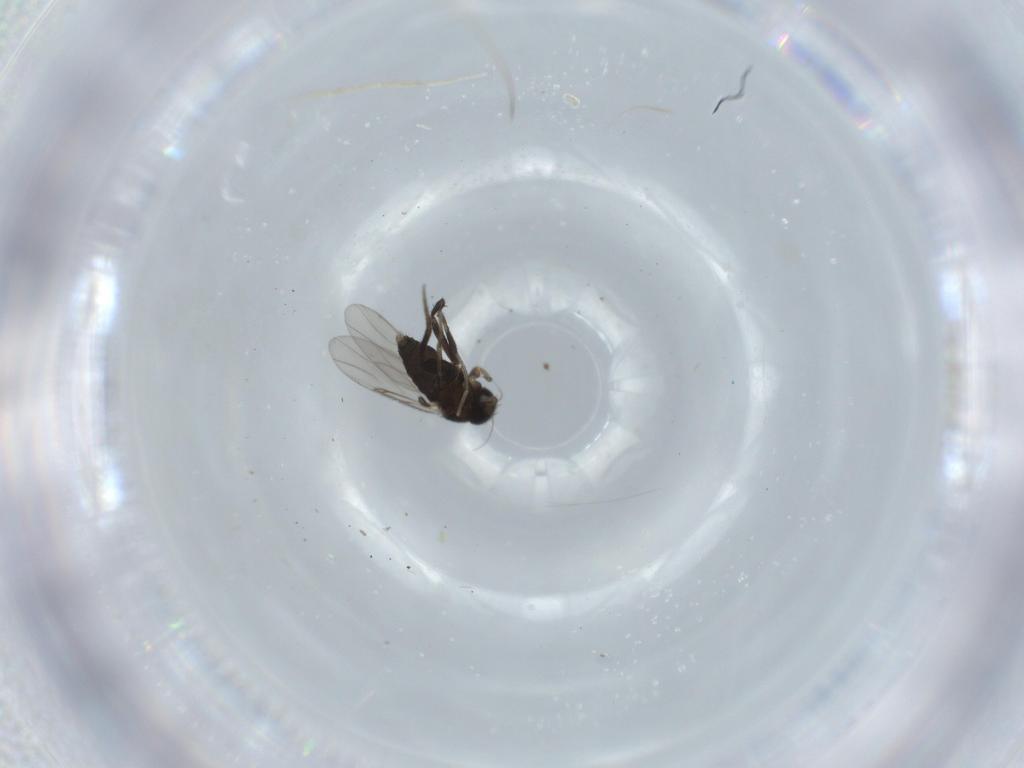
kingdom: Animalia
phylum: Arthropoda
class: Insecta
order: Diptera
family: Phoridae
